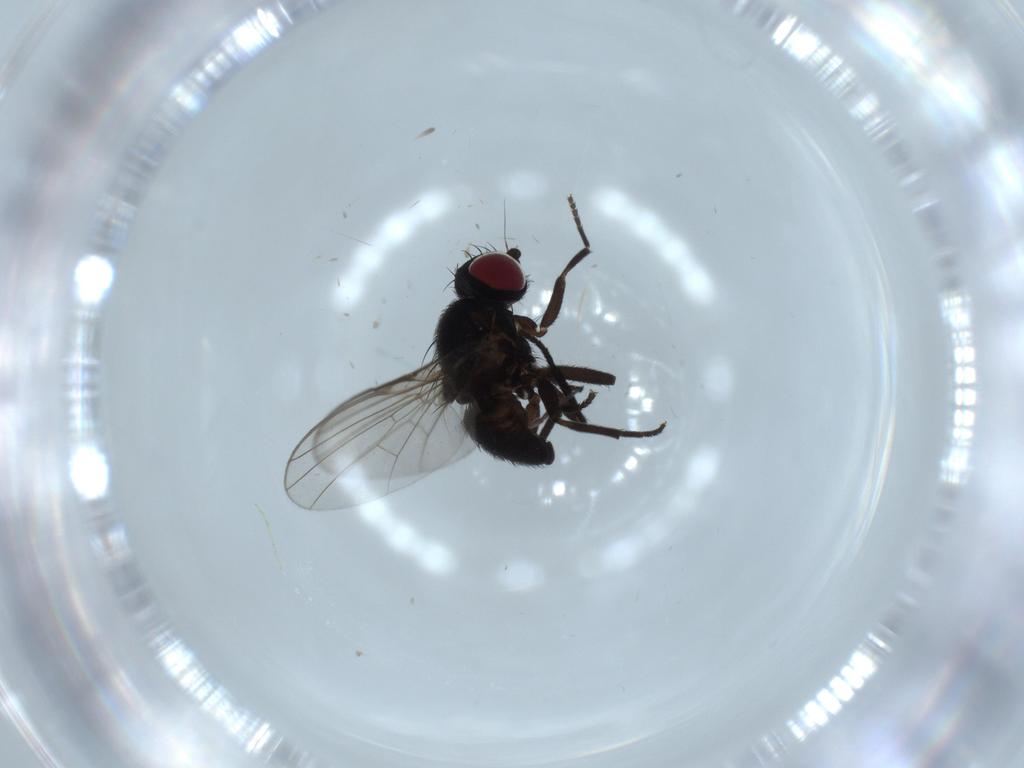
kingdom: Animalia
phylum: Arthropoda
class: Insecta
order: Diptera
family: Agromyzidae
